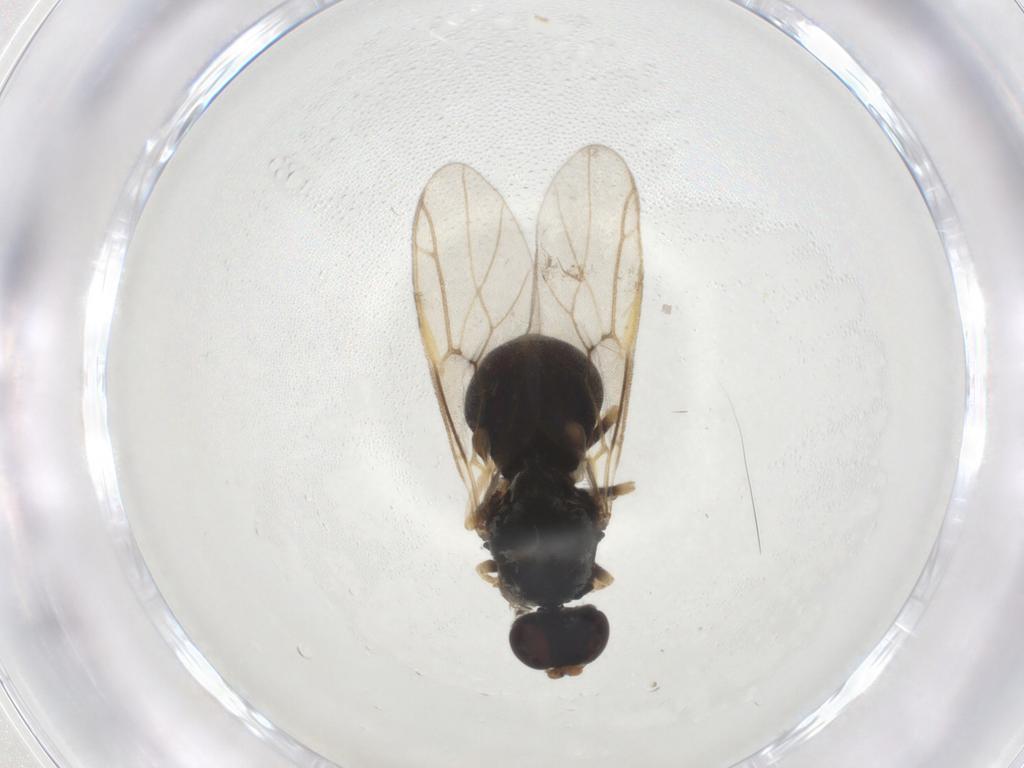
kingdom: Animalia
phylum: Arthropoda
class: Insecta
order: Diptera
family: Stratiomyidae
